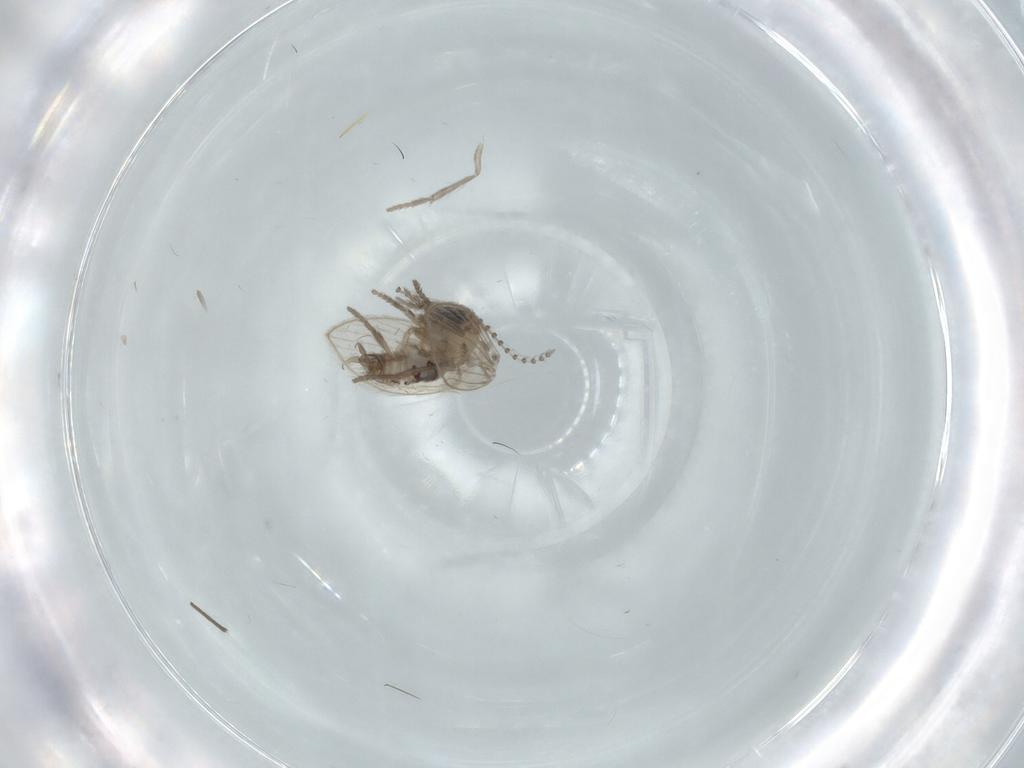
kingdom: Animalia
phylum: Arthropoda
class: Insecta
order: Diptera
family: Psychodidae
